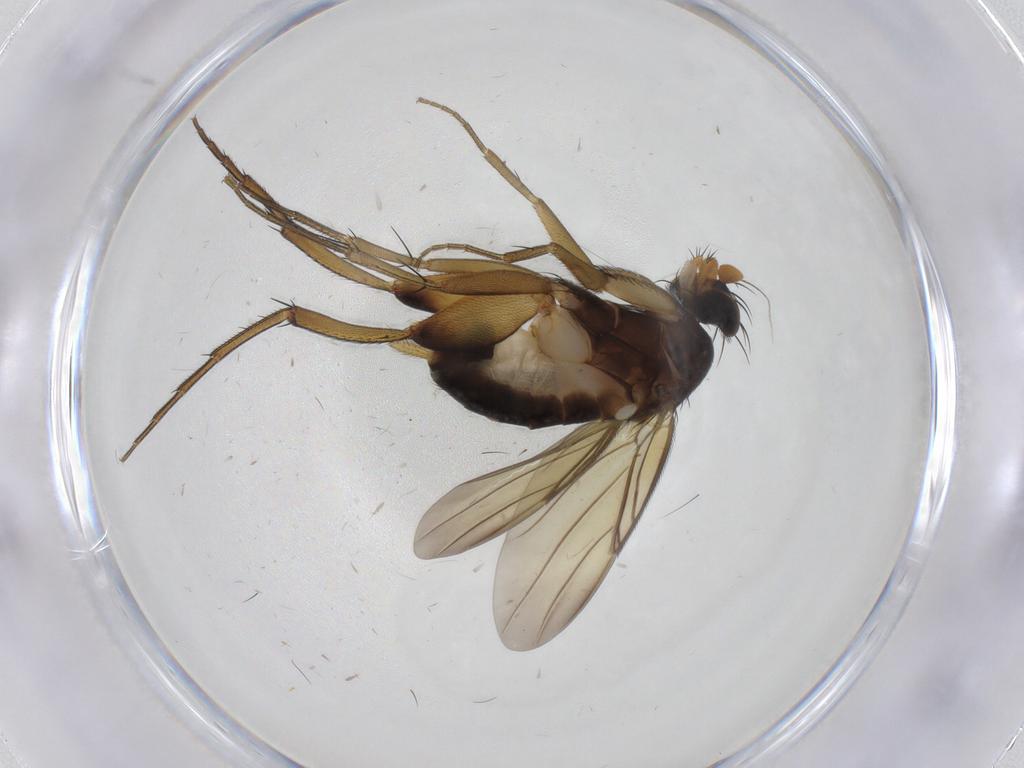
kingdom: Animalia
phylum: Arthropoda
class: Insecta
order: Diptera
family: Phoridae
